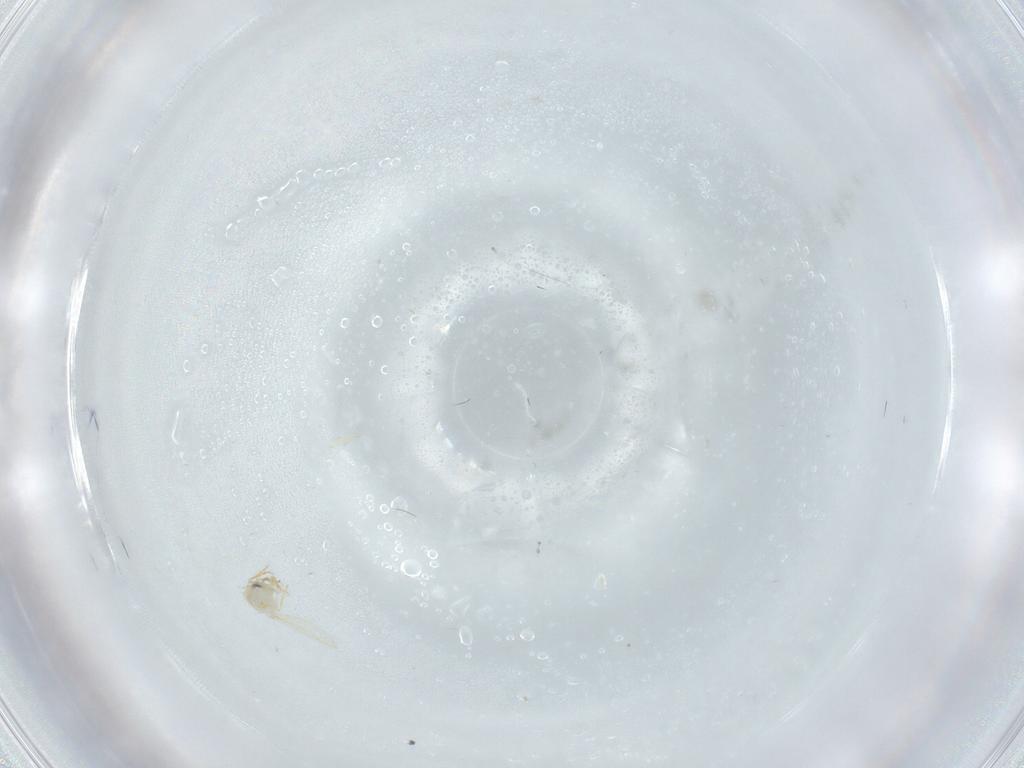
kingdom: Animalia
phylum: Arthropoda
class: Insecta
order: Hemiptera
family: Aleyrodidae
